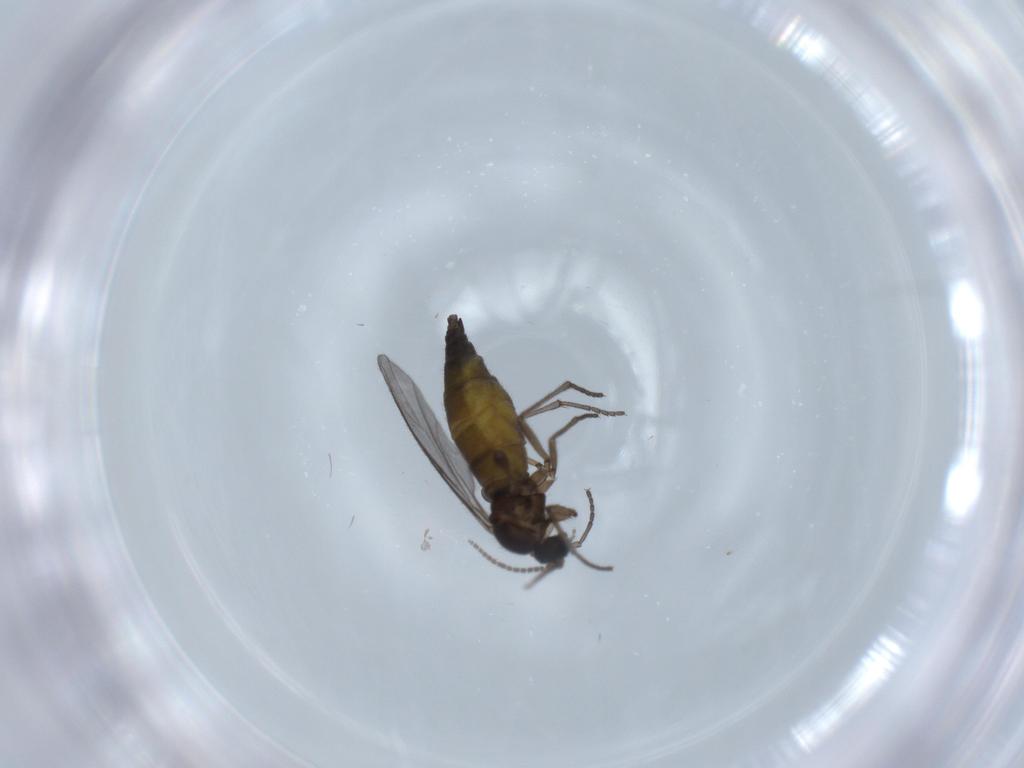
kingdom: Animalia
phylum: Arthropoda
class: Insecta
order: Diptera
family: Sciaridae
